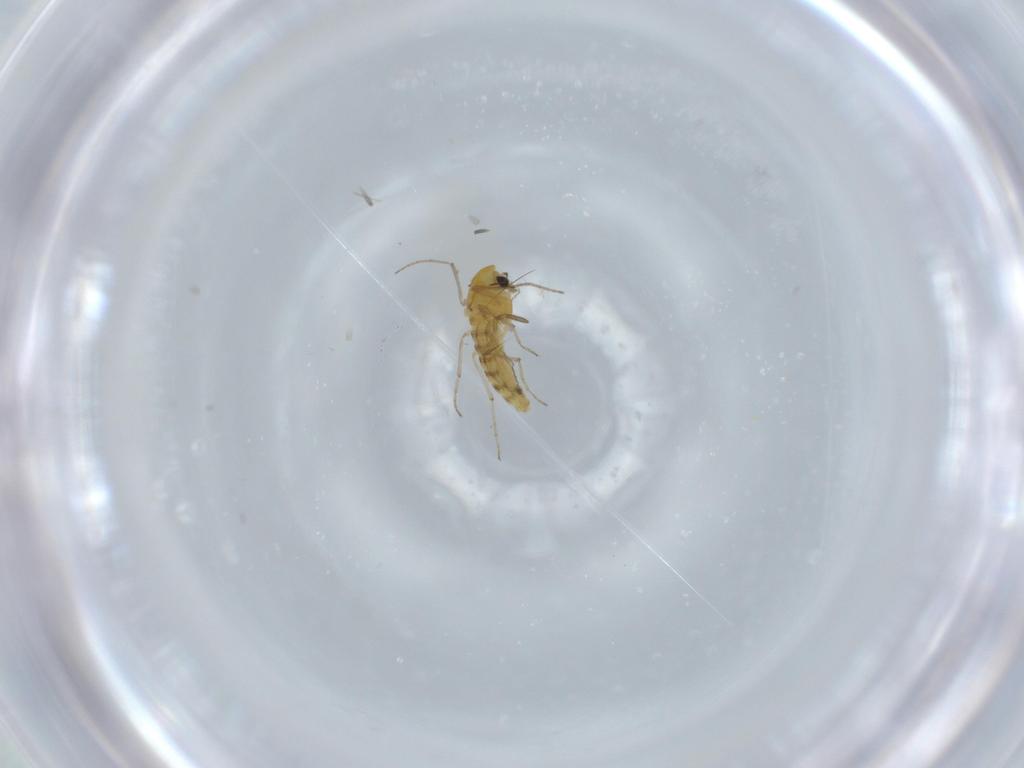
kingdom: Animalia
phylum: Arthropoda
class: Insecta
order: Diptera
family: Chironomidae
